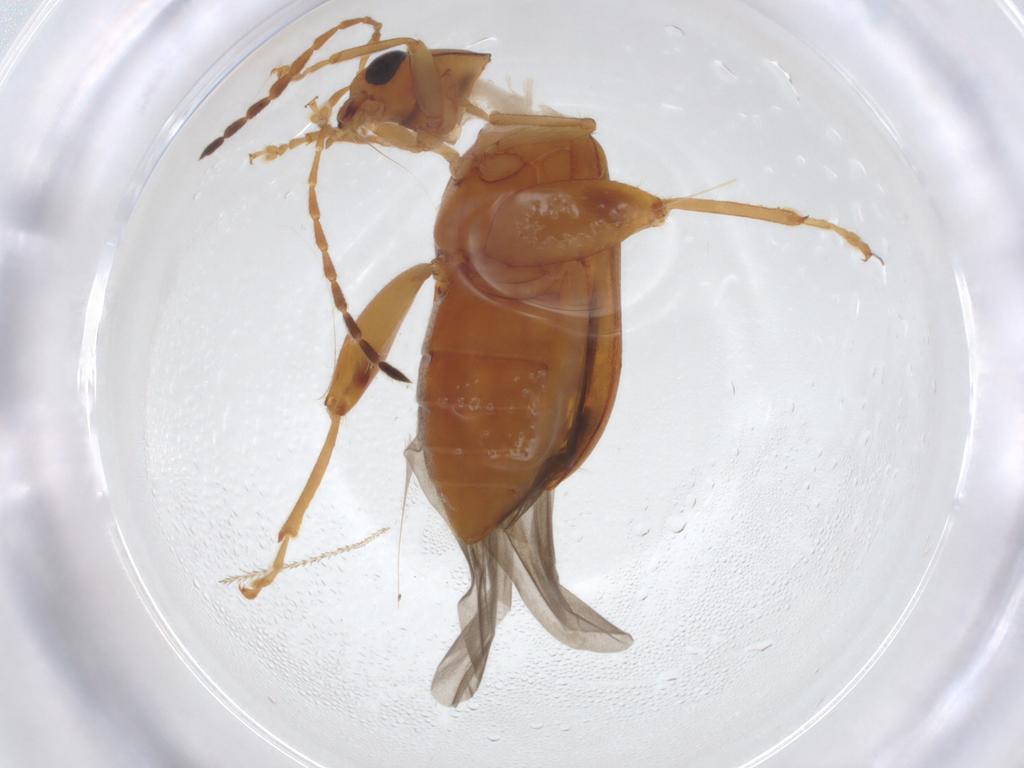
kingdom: Animalia
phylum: Arthropoda
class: Insecta
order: Coleoptera
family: Chrysomelidae
